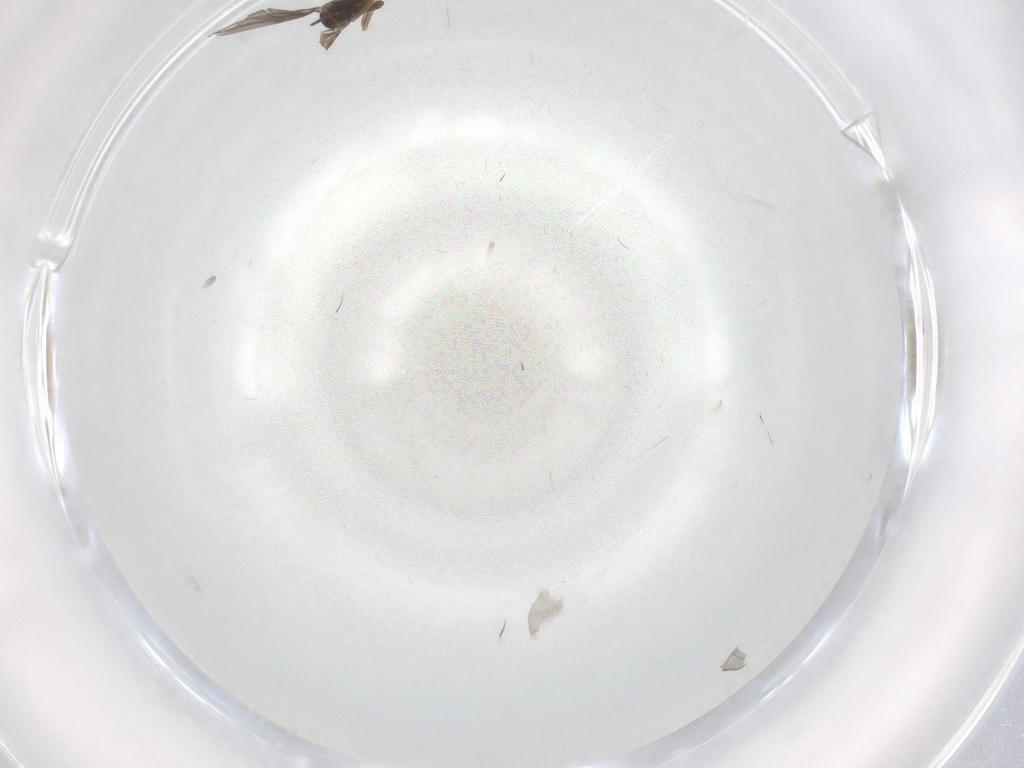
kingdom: Animalia
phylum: Arthropoda
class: Insecta
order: Diptera
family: Sciaridae
